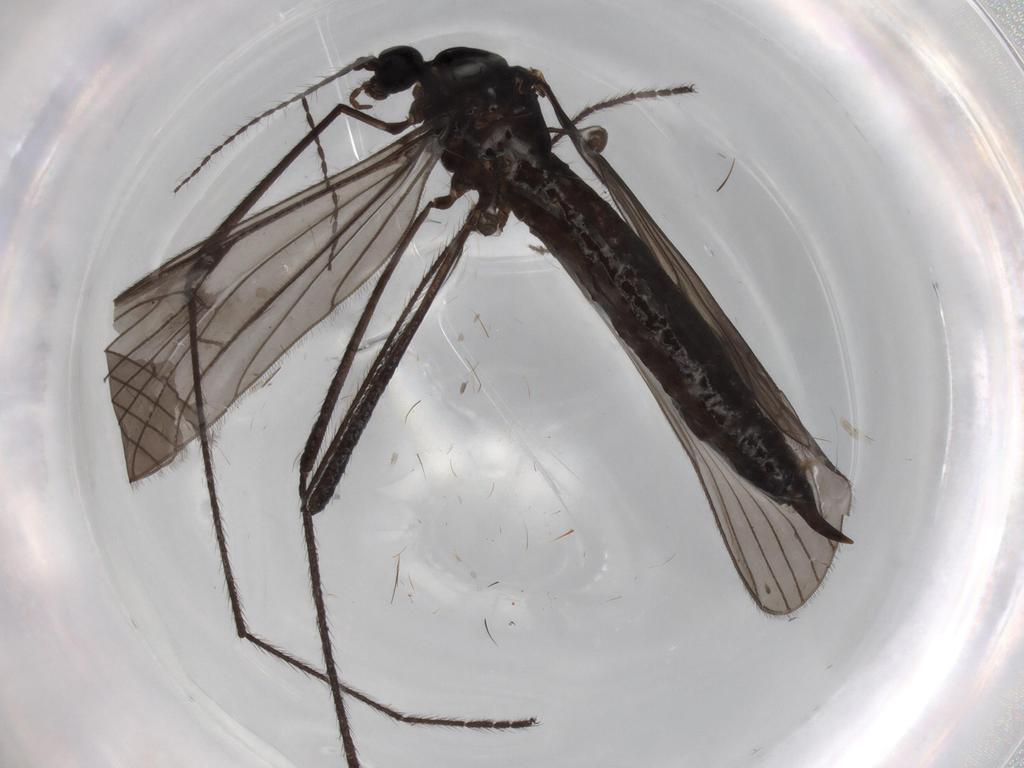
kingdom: Animalia
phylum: Arthropoda
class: Insecta
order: Diptera
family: Limoniidae
